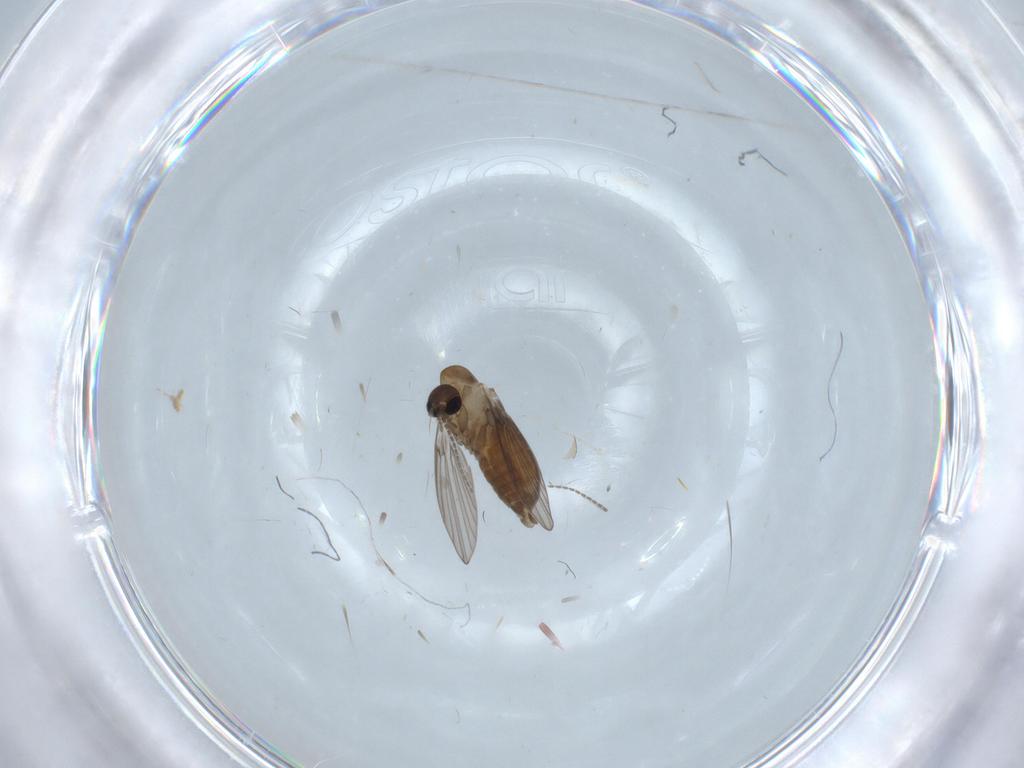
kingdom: Animalia
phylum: Arthropoda
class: Insecta
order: Diptera
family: Psychodidae
